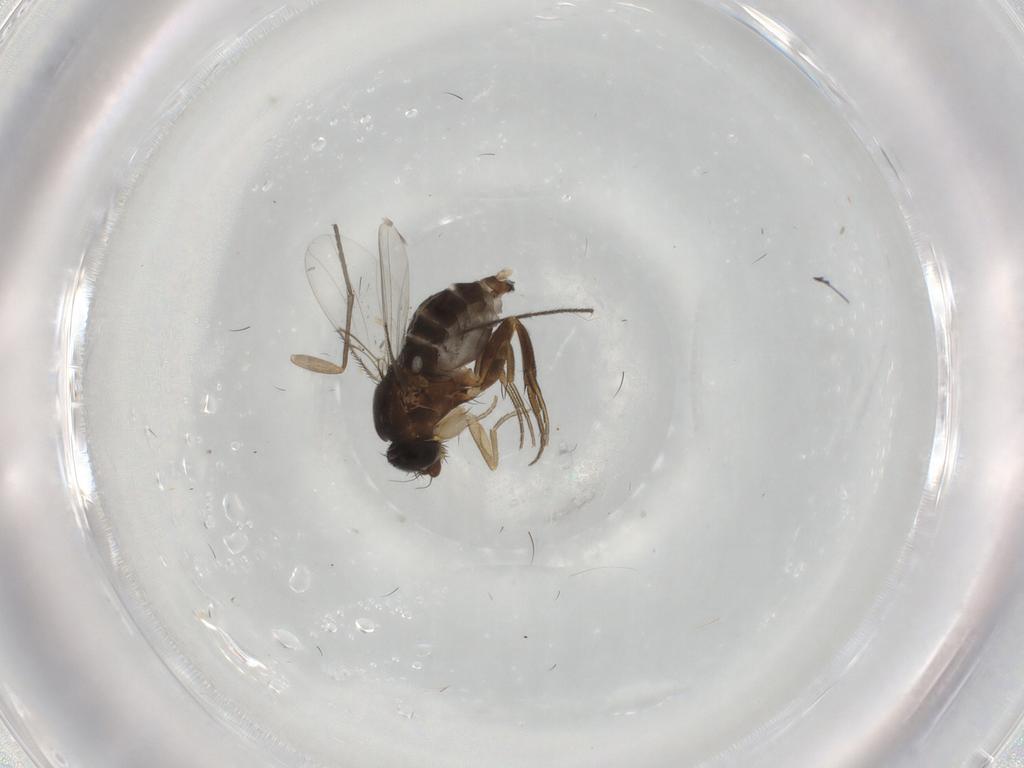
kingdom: Animalia
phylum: Arthropoda
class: Insecta
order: Diptera
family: Phoridae
